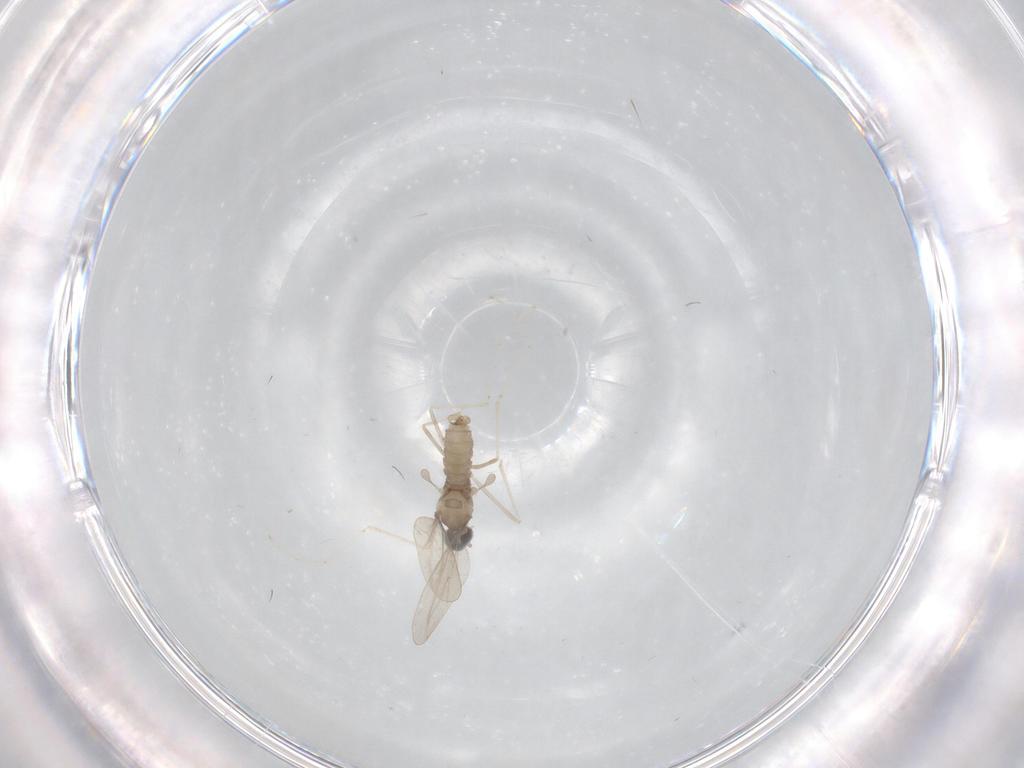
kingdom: Animalia
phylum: Arthropoda
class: Insecta
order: Diptera
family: Cecidomyiidae
